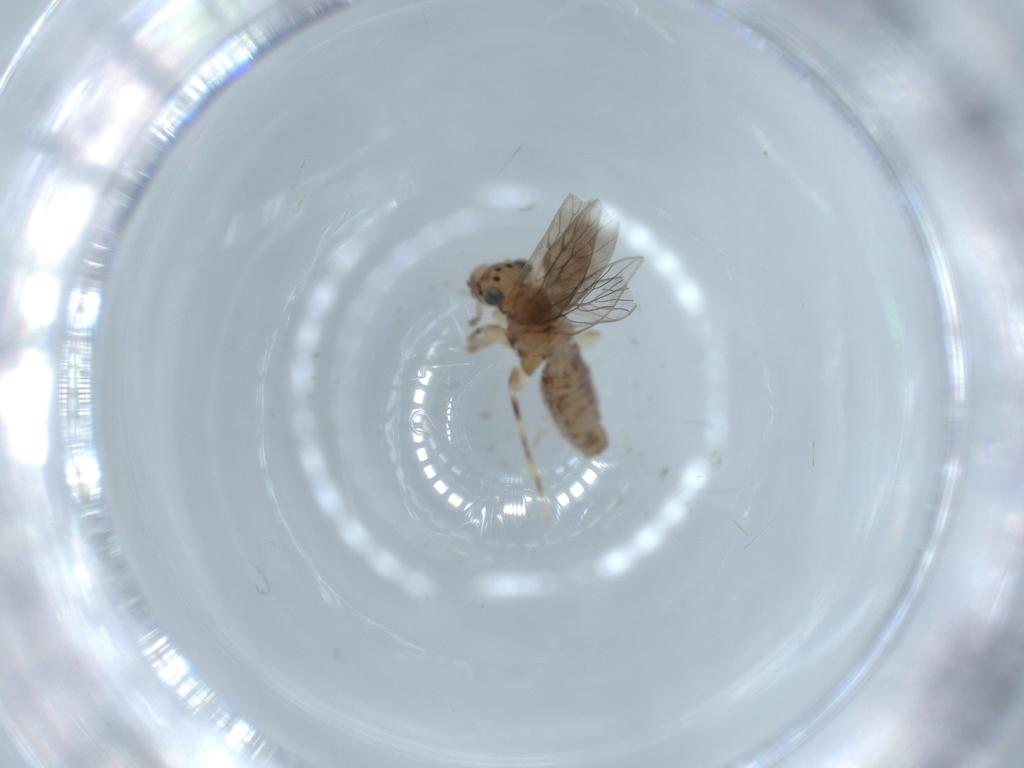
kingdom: Animalia
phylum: Arthropoda
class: Insecta
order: Psocodea
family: Lepidopsocidae
